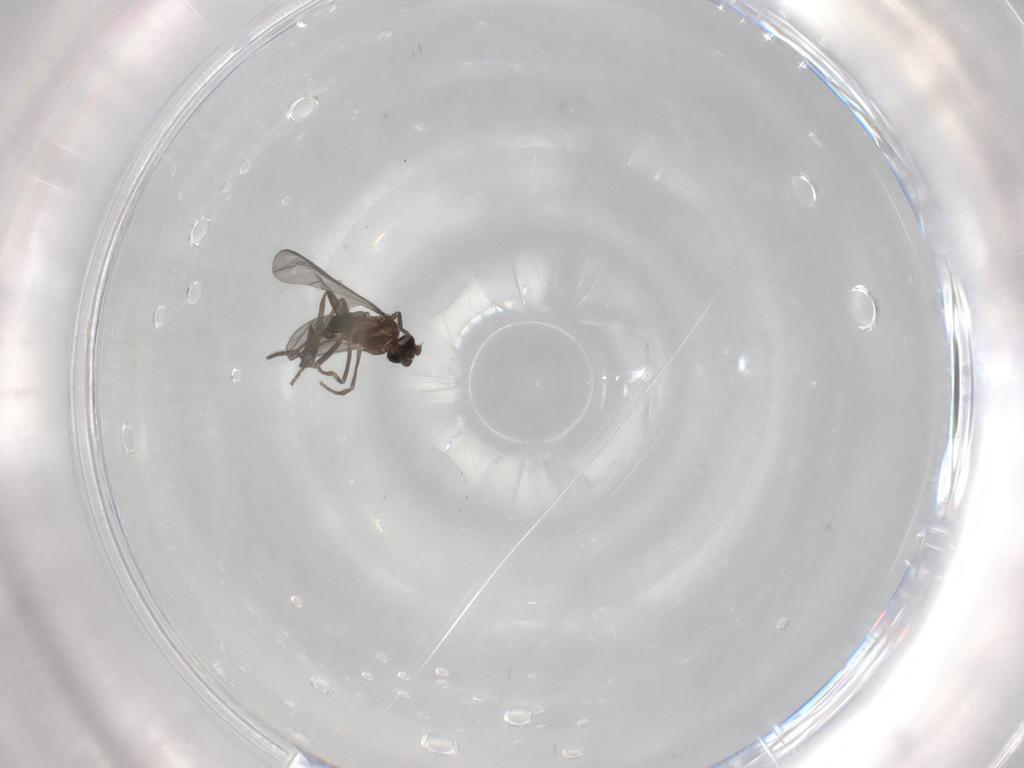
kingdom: Animalia
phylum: Arthropoda
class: Insecta
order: Diptera
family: Phoridae
